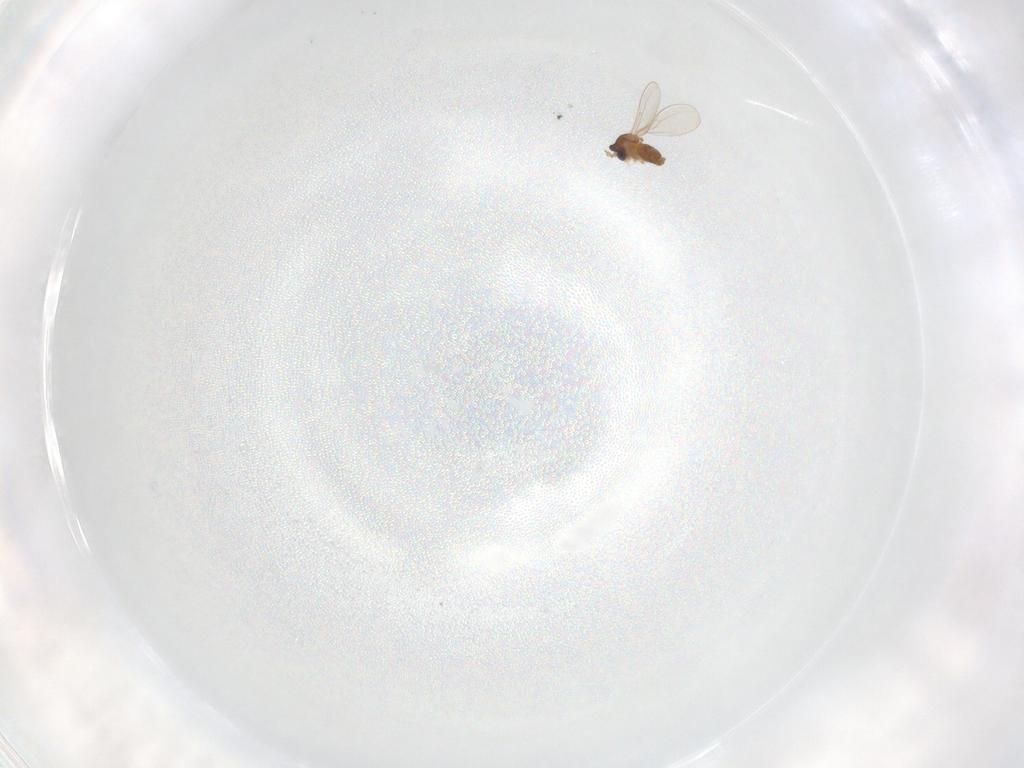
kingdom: Animalia
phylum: Arthropoda
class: Insecta
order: Diptera
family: Cecidomyiidae
